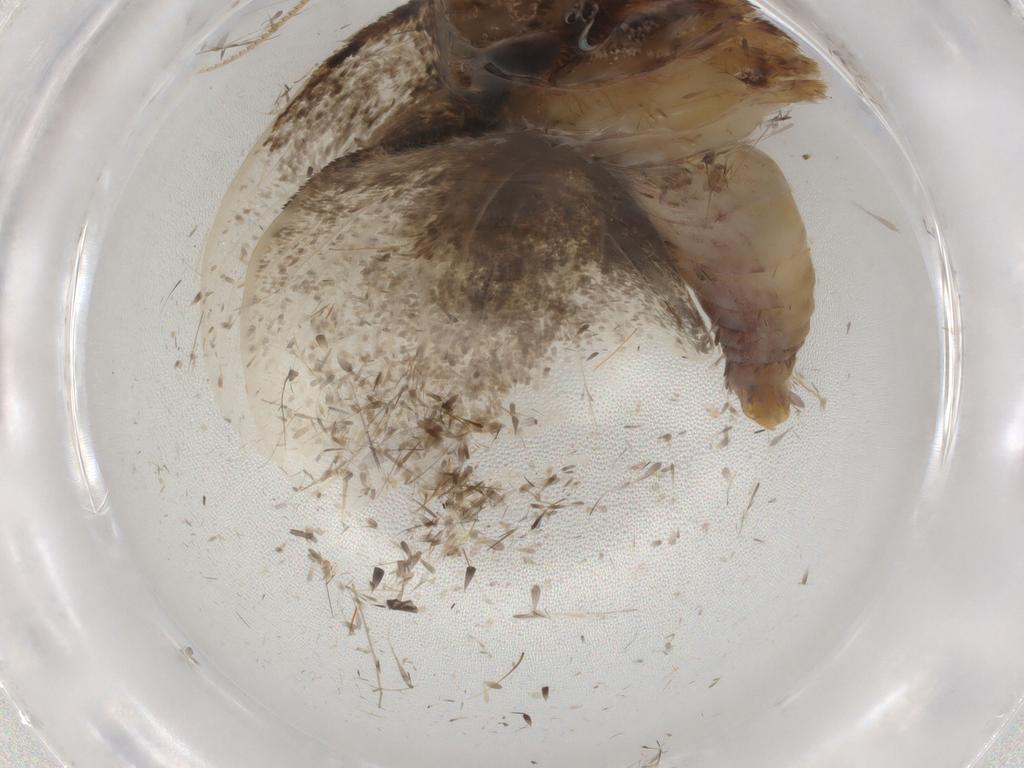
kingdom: Animalia
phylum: Arthropoda
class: Insecta
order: Lepidoptera
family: Tineidae
